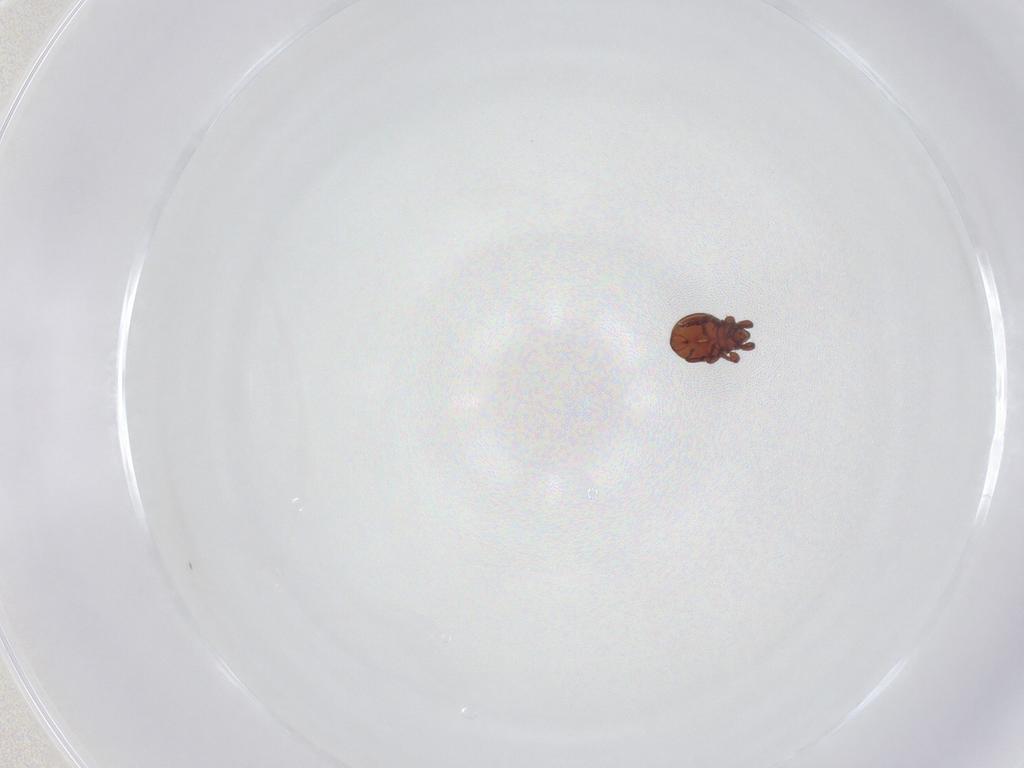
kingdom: Animalia
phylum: Arthropoda
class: Arachnida
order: Sarcoptiformes
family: Eremaeidae
